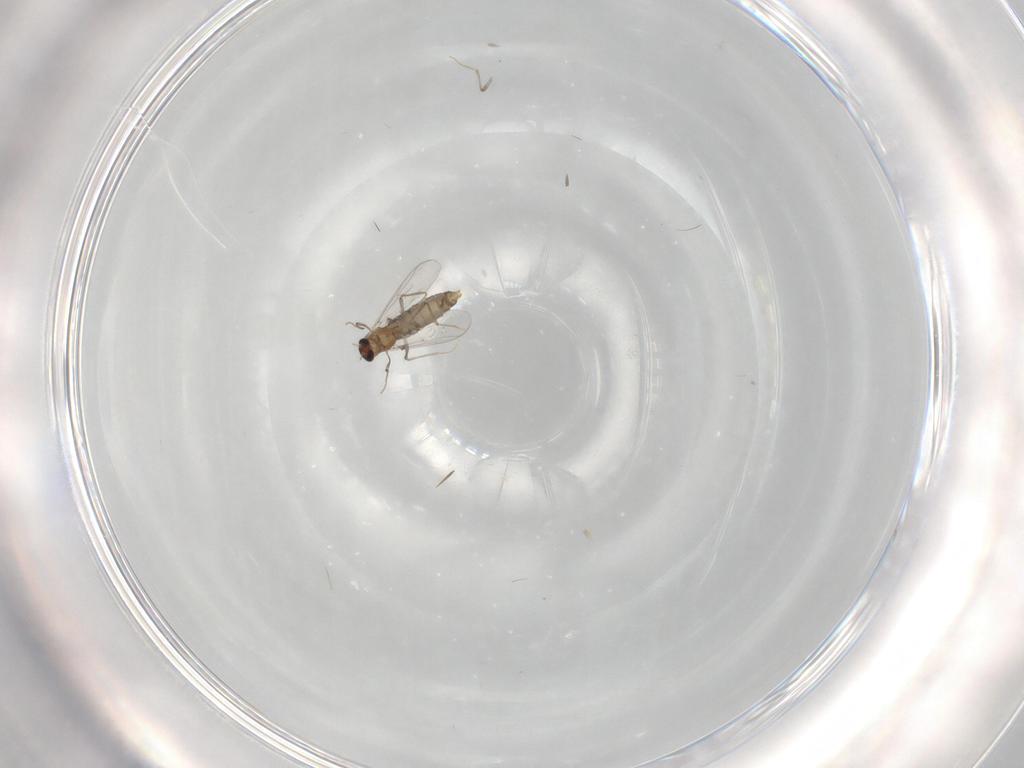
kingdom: Animalia
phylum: Arthropoda
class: Insecta
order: Diptera
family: Chironomidae
